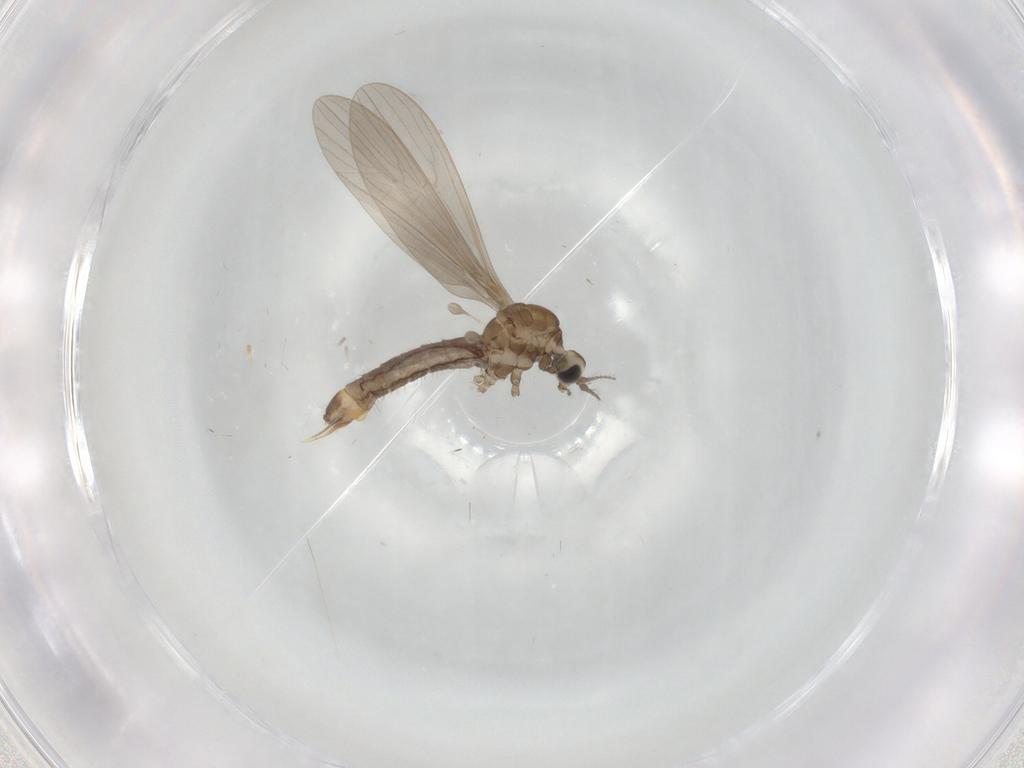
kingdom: Animalia
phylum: Arthropoda
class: Insecta
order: Diptera
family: Limoniidae
